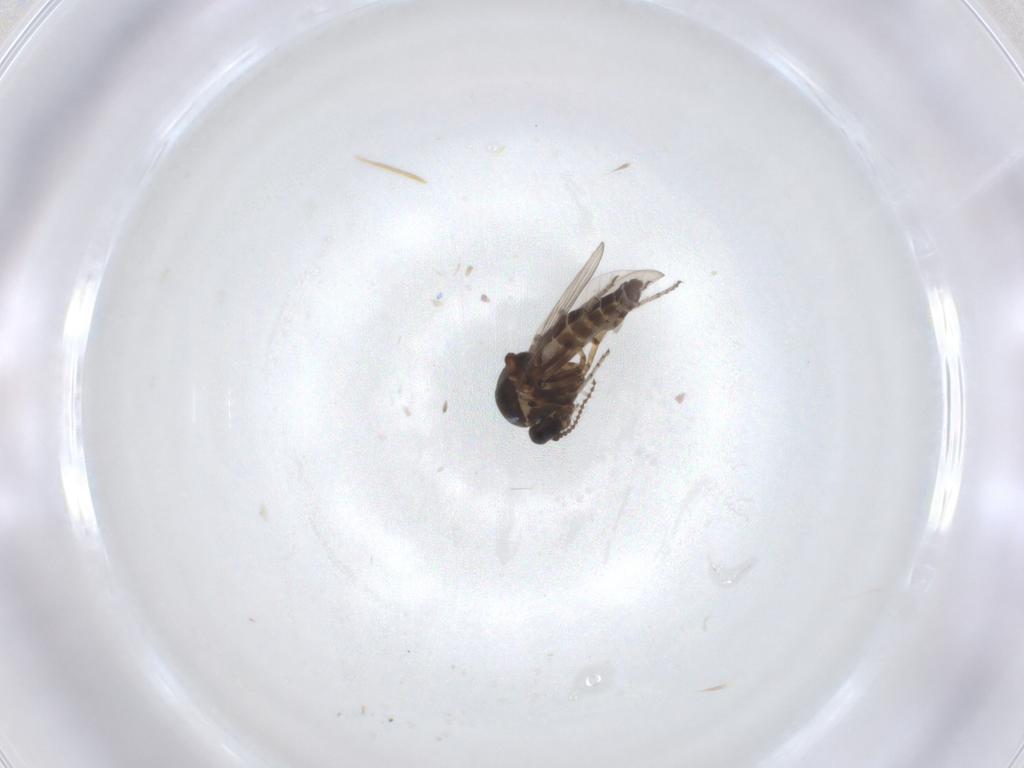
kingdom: Animalia
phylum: Arthropoda
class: Insecta
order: Diptera
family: Ceratopogonidae
